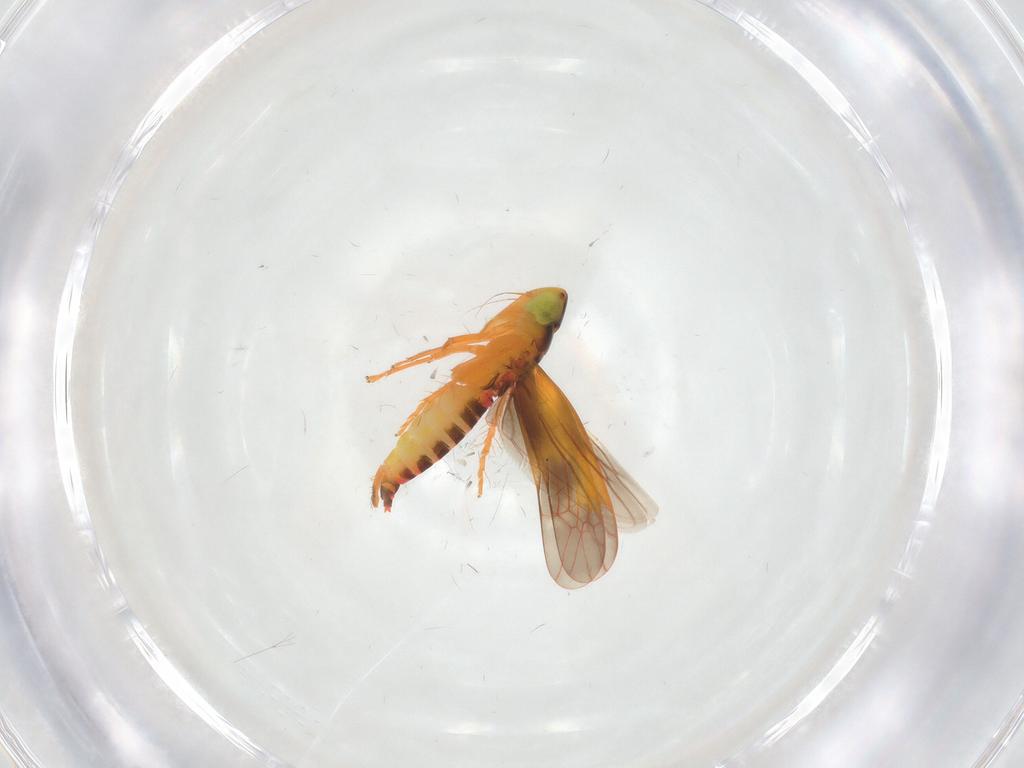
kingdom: Animalia
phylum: Arthropoda
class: Insecta
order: Hemiptera
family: Cicadellidae
